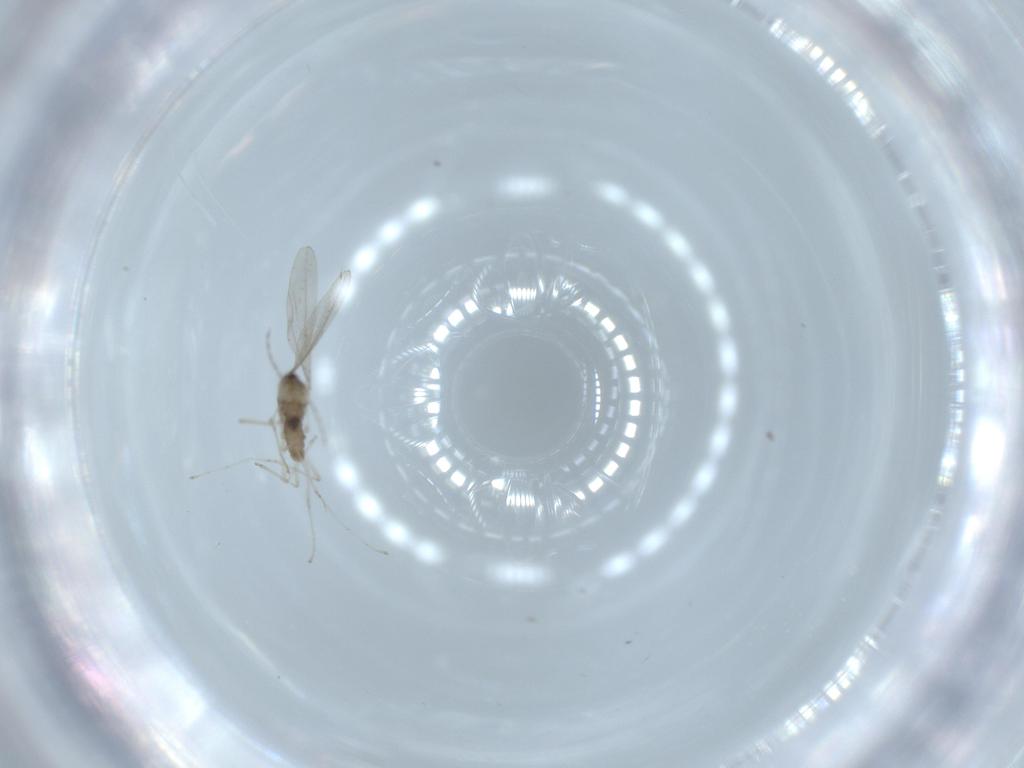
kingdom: Animalia
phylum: Arthropoda
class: Insecta
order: Diptera
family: Cecidomyiidae
